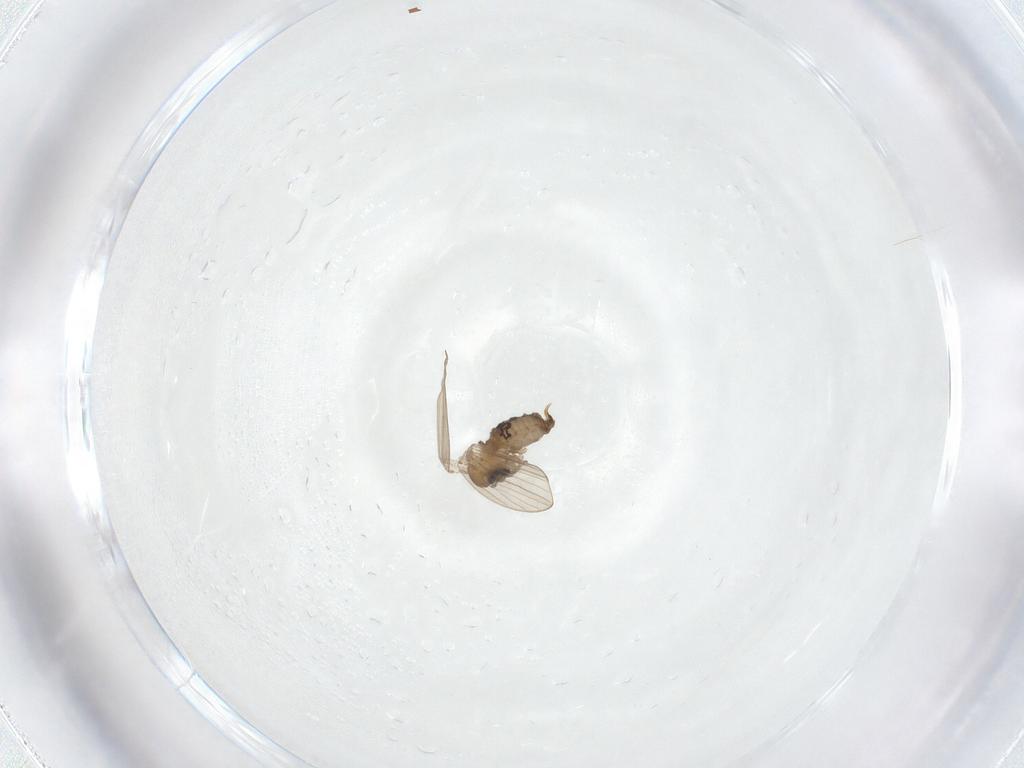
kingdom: Animalia
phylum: Arthropoda
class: Insecta
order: Diptera
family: Psychodidae
